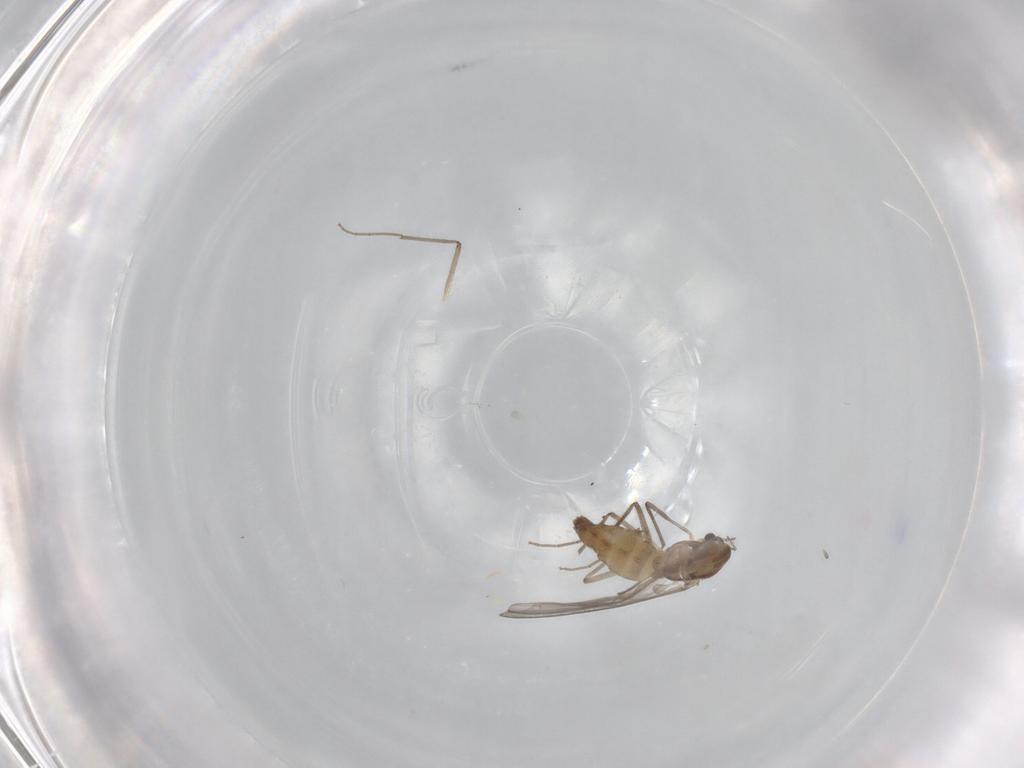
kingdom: Animalia
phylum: Arthropoda
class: Insecta
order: Diptera
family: Chironomidae
